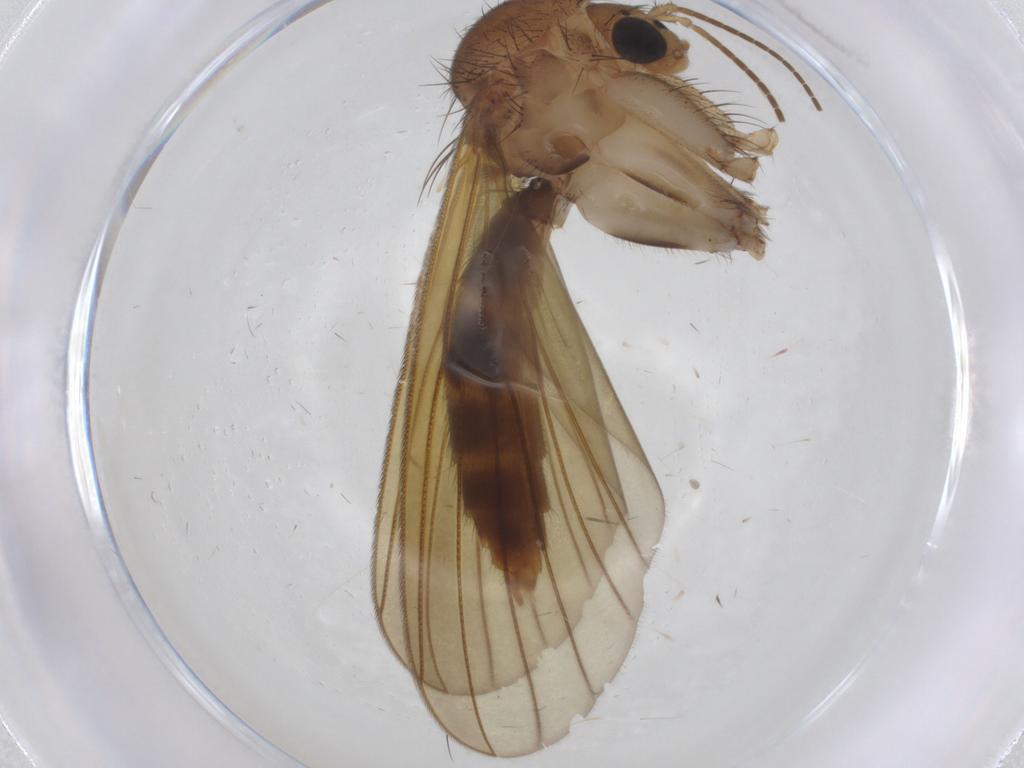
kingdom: Animalia
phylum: Arthropoda
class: Insecta
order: Diptera
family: Mycetophilidae
